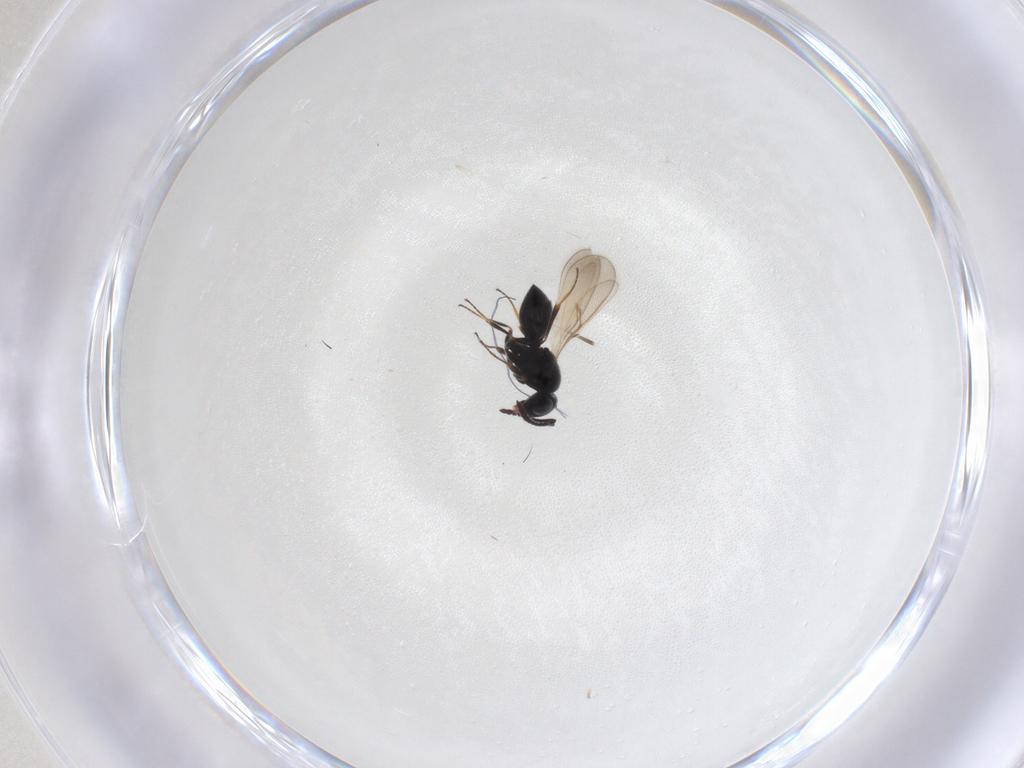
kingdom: Animalia
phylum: Arthropoda
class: Insecta
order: Hymenoptera
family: Scelionidae
